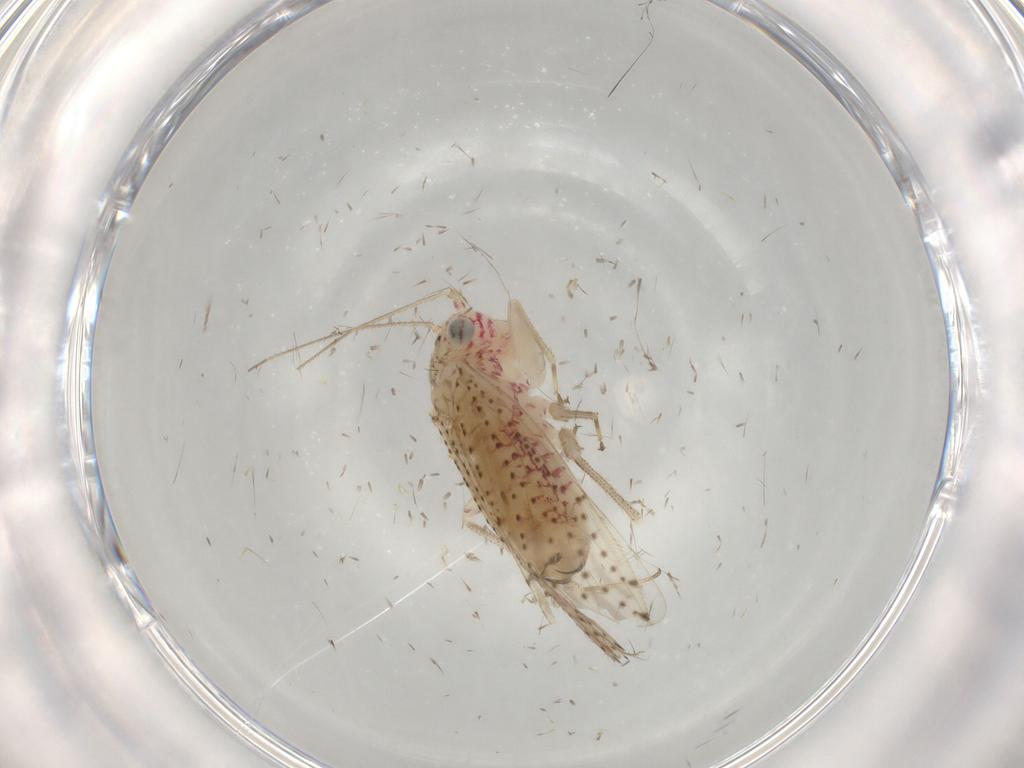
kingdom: Animalia
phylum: Arthropoda
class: Insecta
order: Psocodea
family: Philotarsidae
